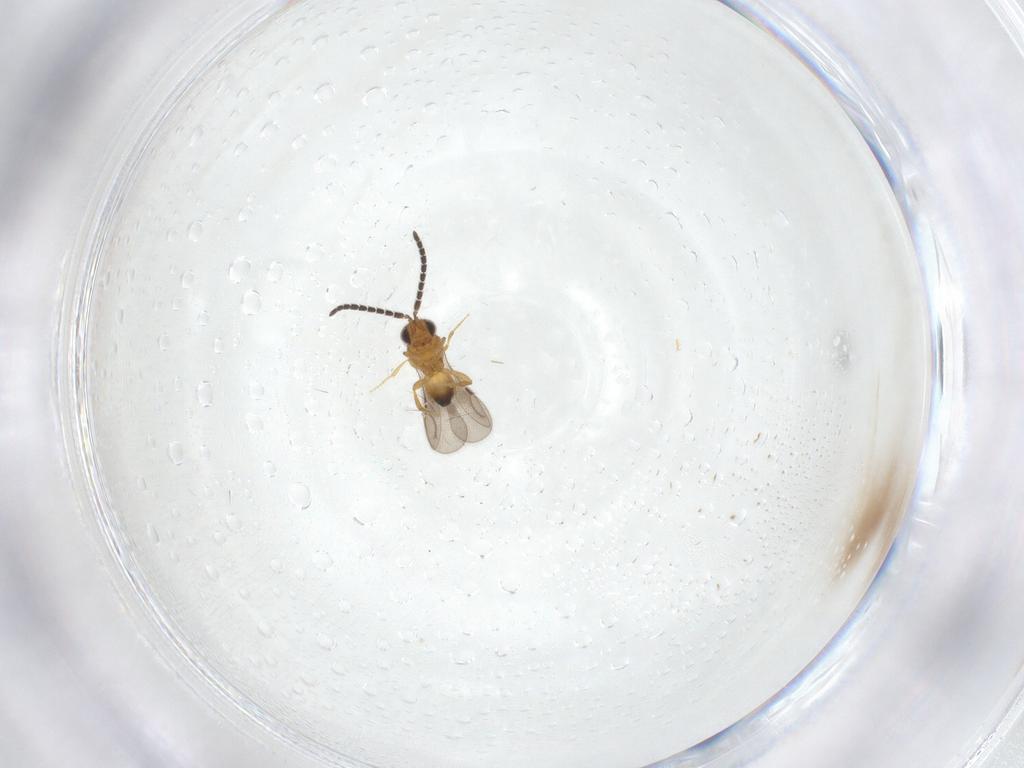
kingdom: Animalia
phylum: Arthropoda
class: Insecta
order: Hymenoptera
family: Ceraphronidae
